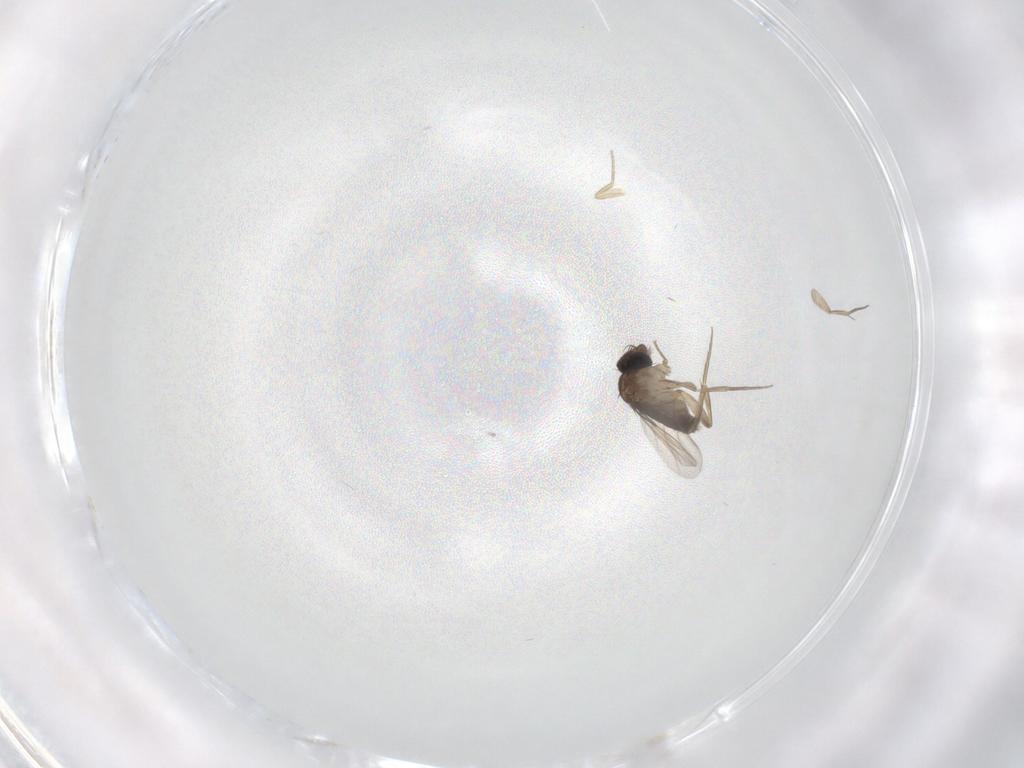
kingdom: Animalia
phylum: Arthropoda
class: Insecta
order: Diptera
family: Phoridae
